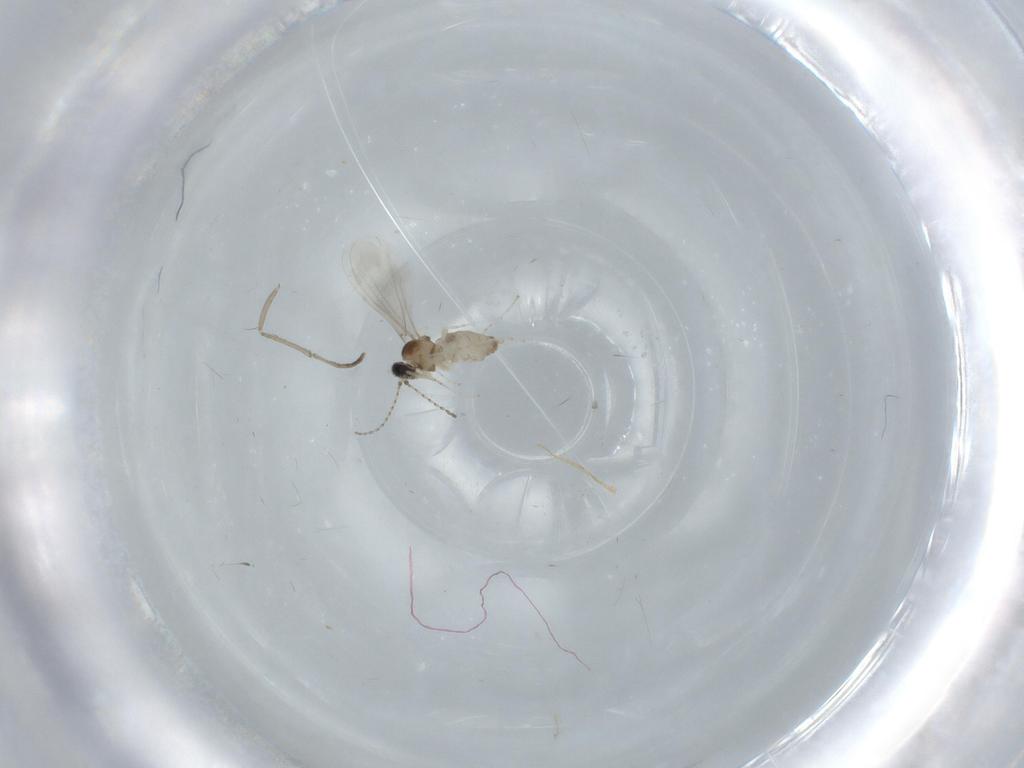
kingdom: Animalia
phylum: Arthropoda
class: Insecta
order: Diptera
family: Cecidomyiidae
